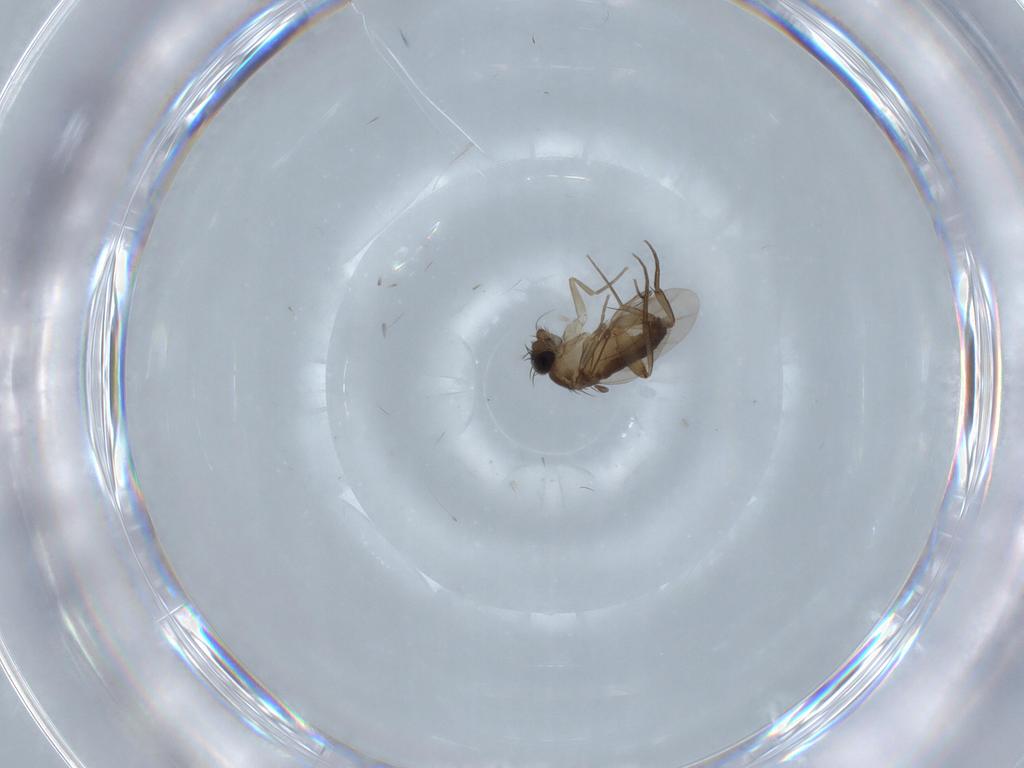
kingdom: Animalia
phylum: Arthropoda
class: Insecta
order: Diptera
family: Phoridae
